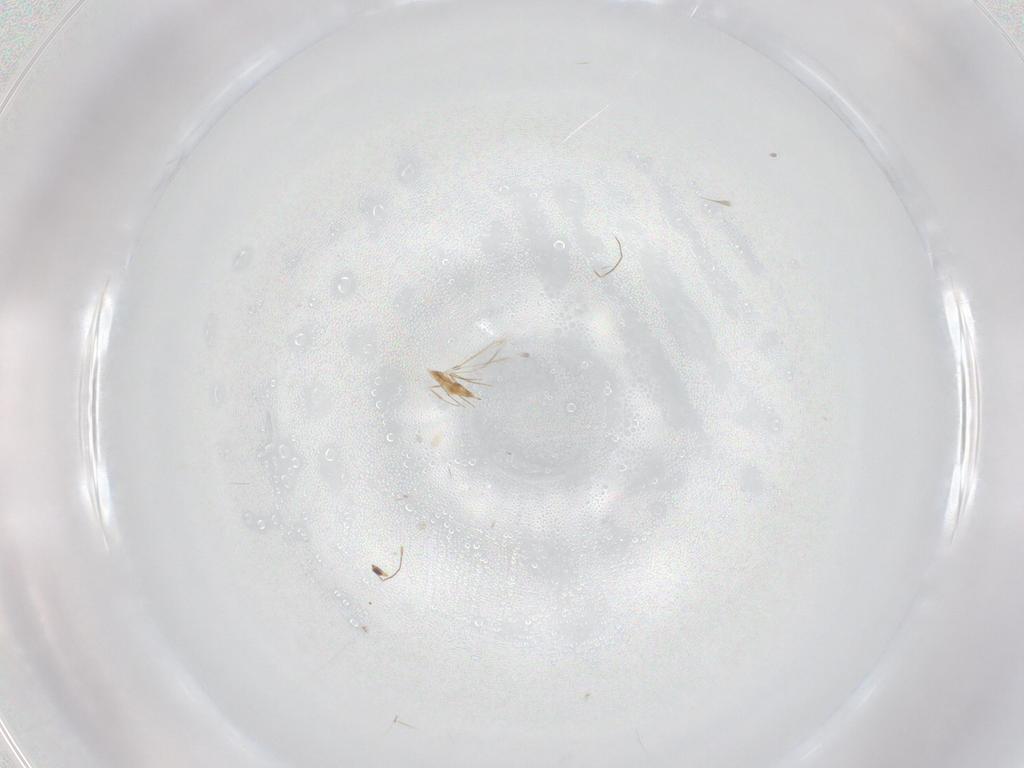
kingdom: Animalia
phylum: Arthropoda
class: Insecta
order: Hymenoptera
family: Mymaridae
